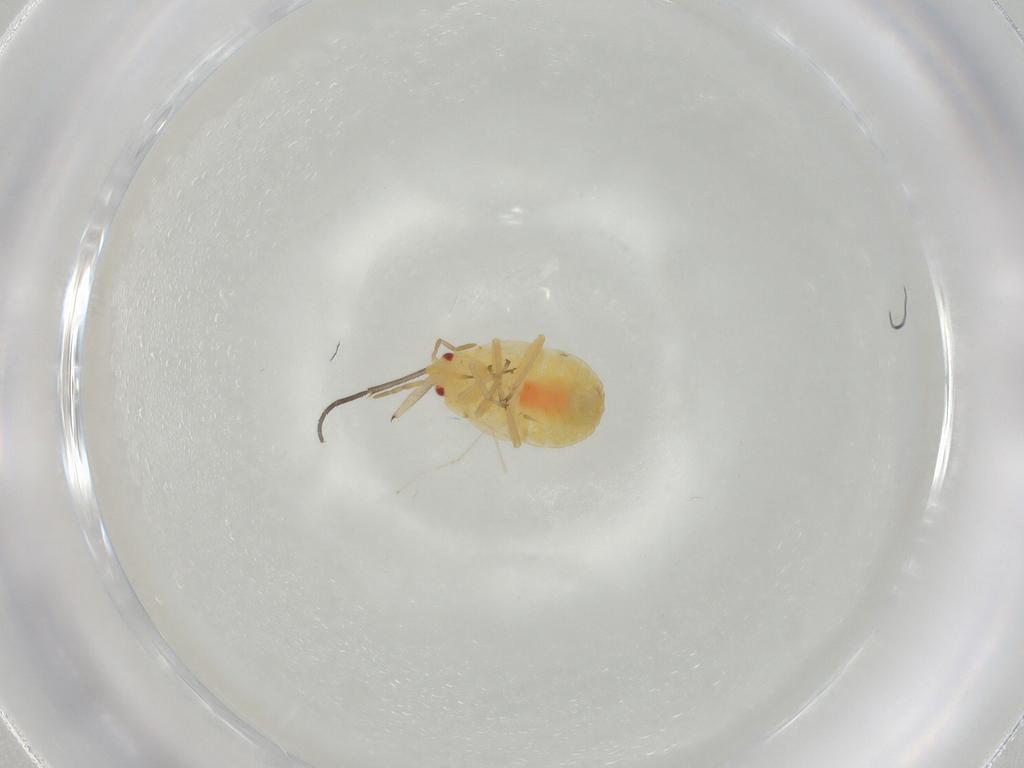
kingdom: Animalia
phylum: Arthropoda
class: Insecta
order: Hemiptera
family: Anthocoridae
